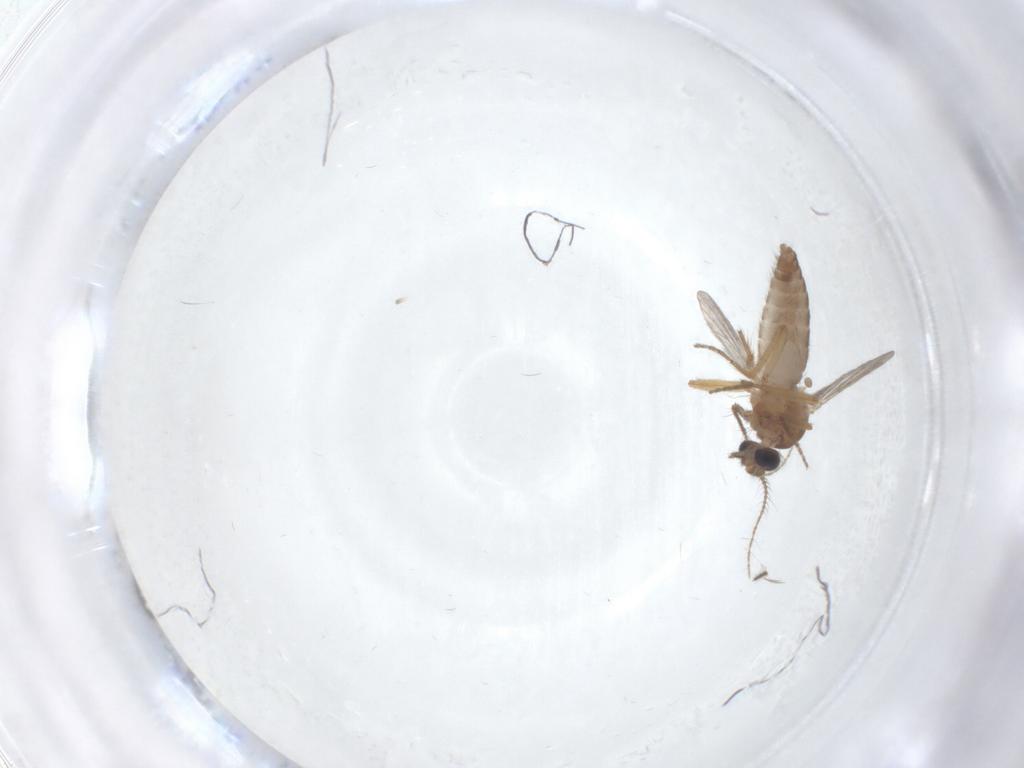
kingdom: Animalia
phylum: Arthropoda
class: Insecta
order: Diptera
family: Ceratopogonidae
